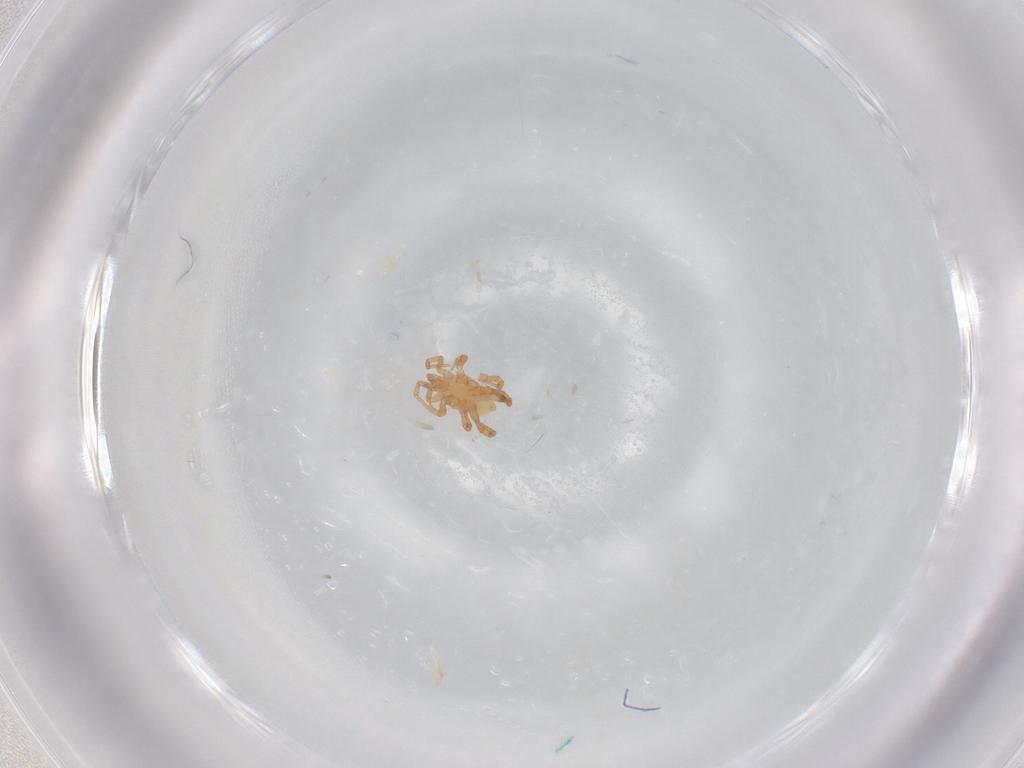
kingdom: Animalia
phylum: Arthropoda
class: Arachnida
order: Mesostigmata
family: Parasitidae
